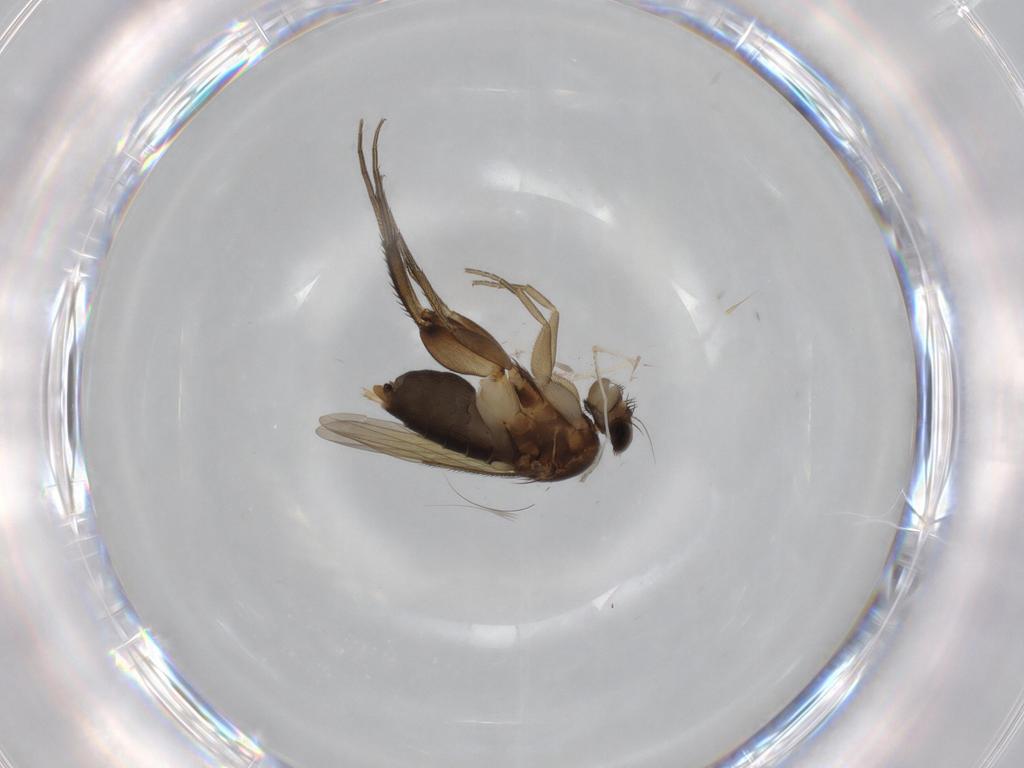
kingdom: Animalia
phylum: Arthropoda
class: Insecta
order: Diptera
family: Phoridae
